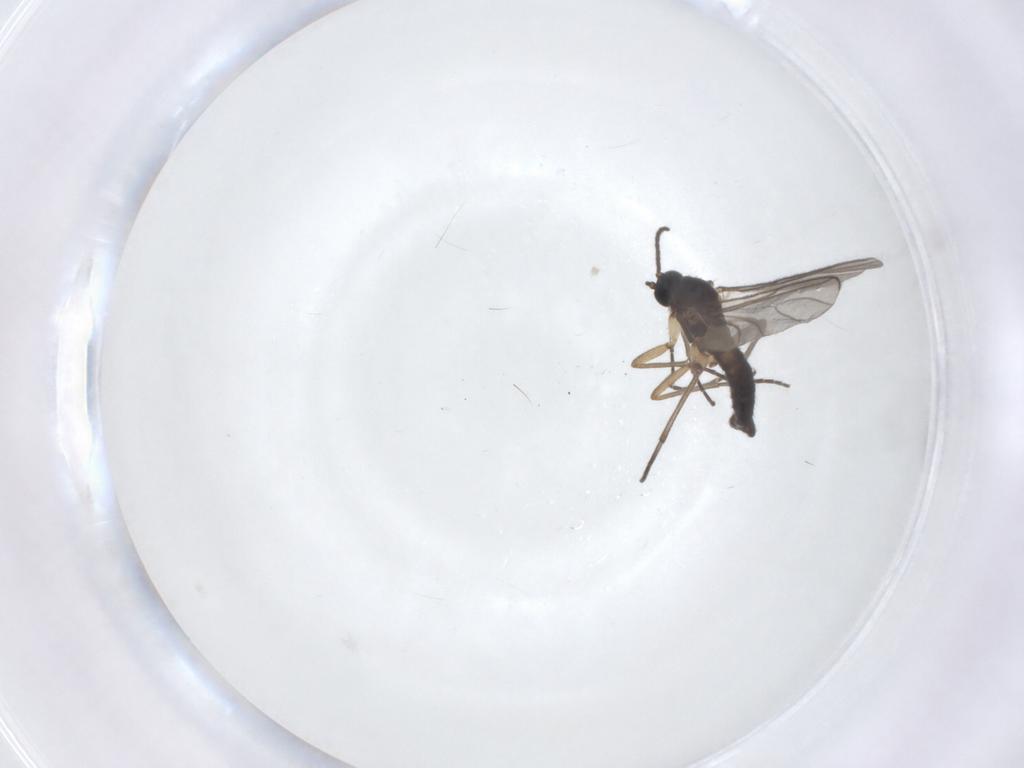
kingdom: Animalia
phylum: Arthropoda
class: Insecta
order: Diptera
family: Sciaridae
